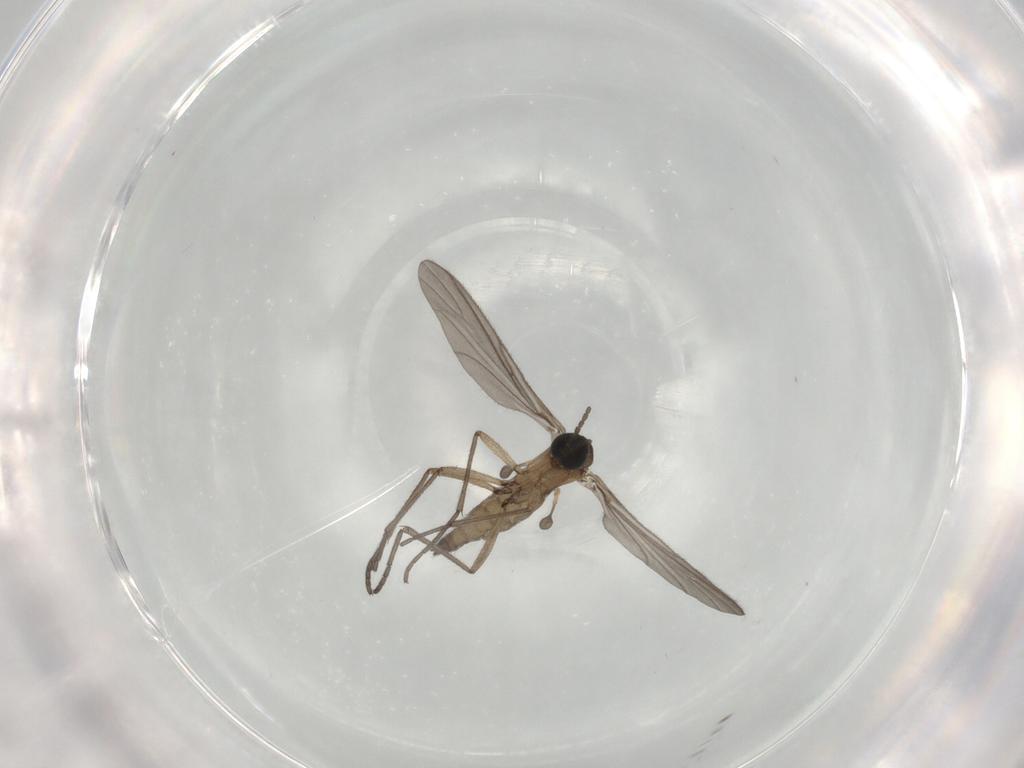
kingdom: Animalia
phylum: Arthropoda
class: Insecta
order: Diptera
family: Sciaridae
